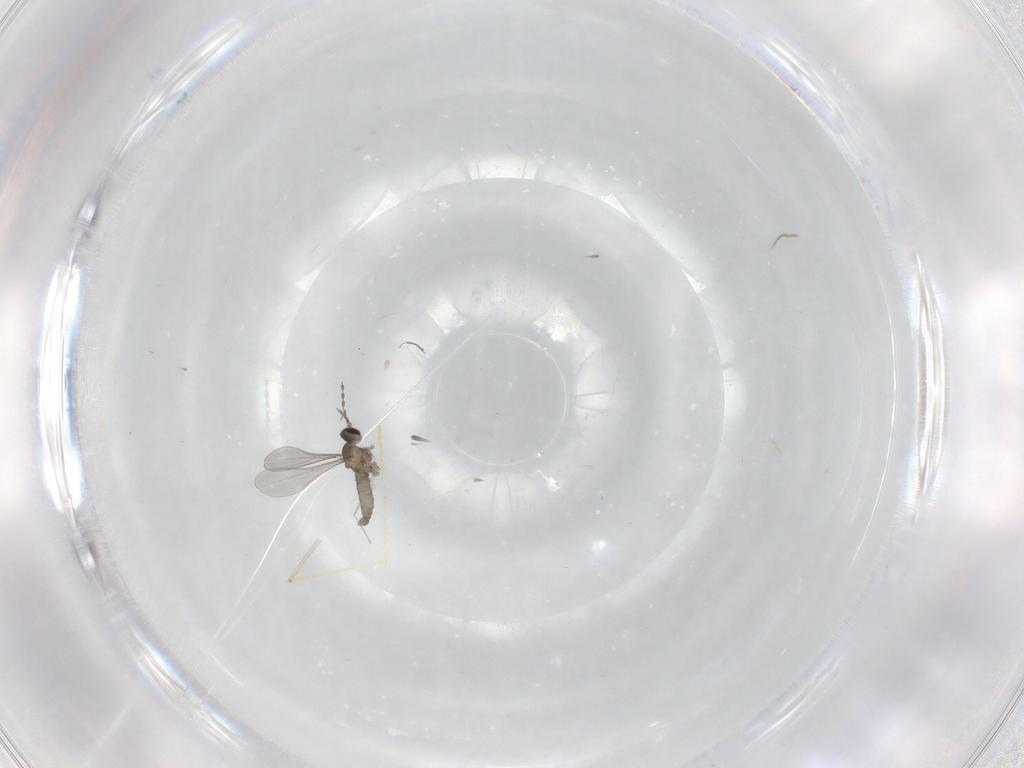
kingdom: Animalia
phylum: Arthropoda
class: Insecta
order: Diptera
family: Cecidomyiidae
